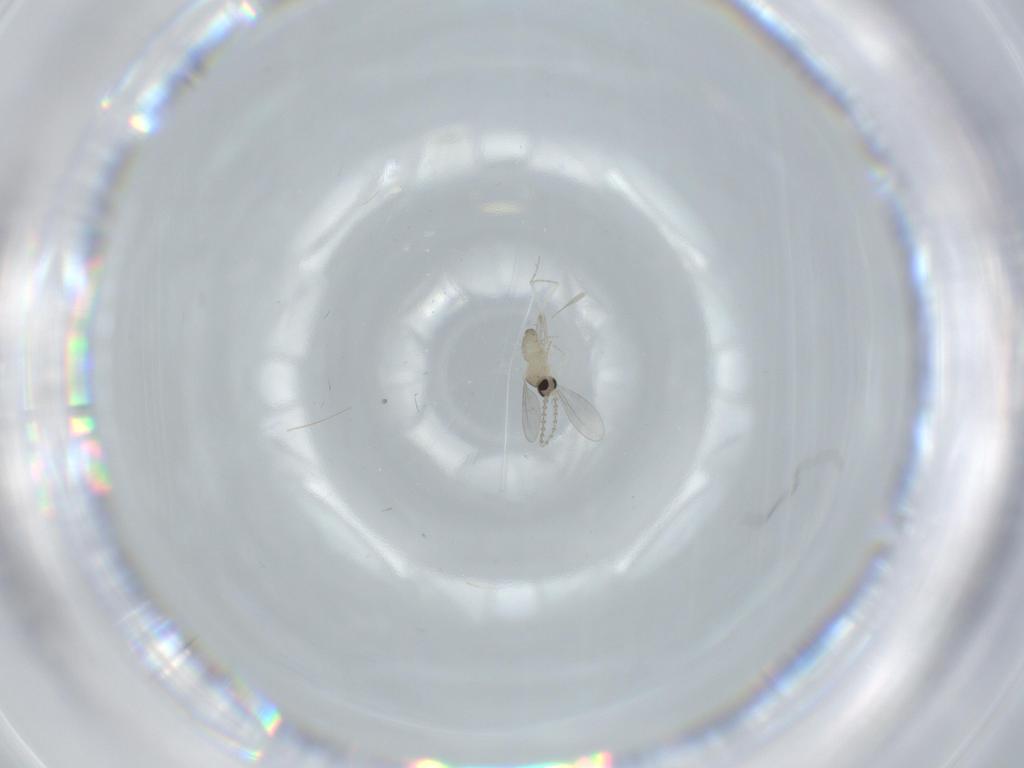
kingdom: Animalia
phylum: Arthropoda
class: Insecta
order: Diptera
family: Cecidomyiidae
